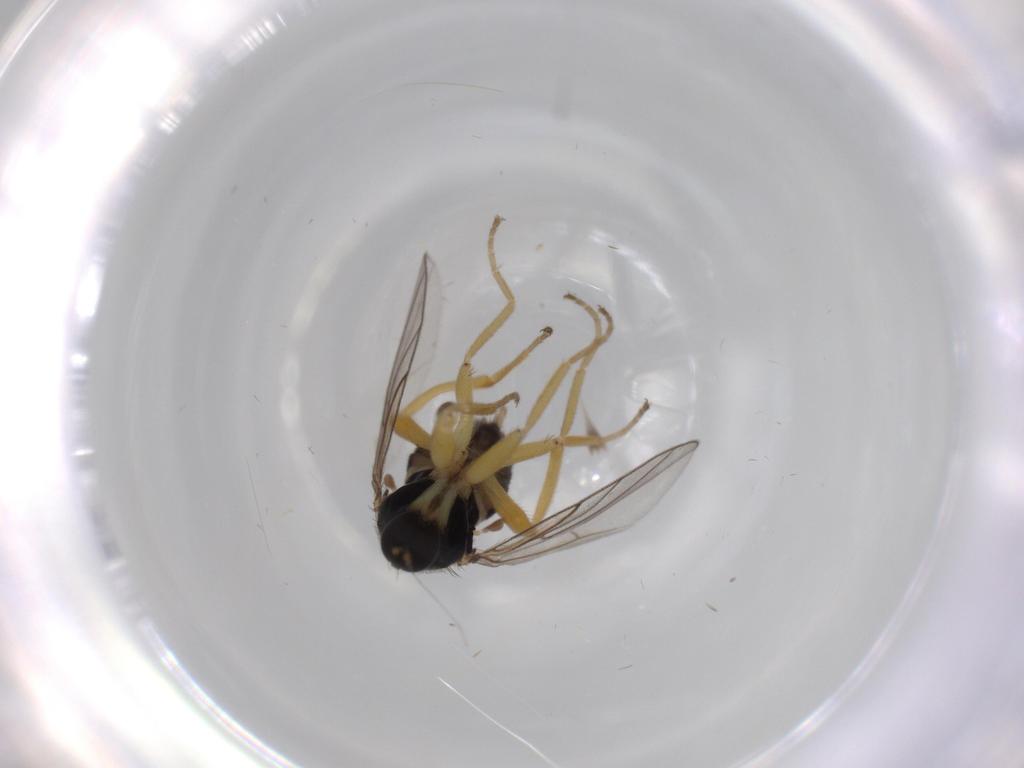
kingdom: Animalia
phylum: Arthropoda
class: Insecta
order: Diptera
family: Hybotidae
